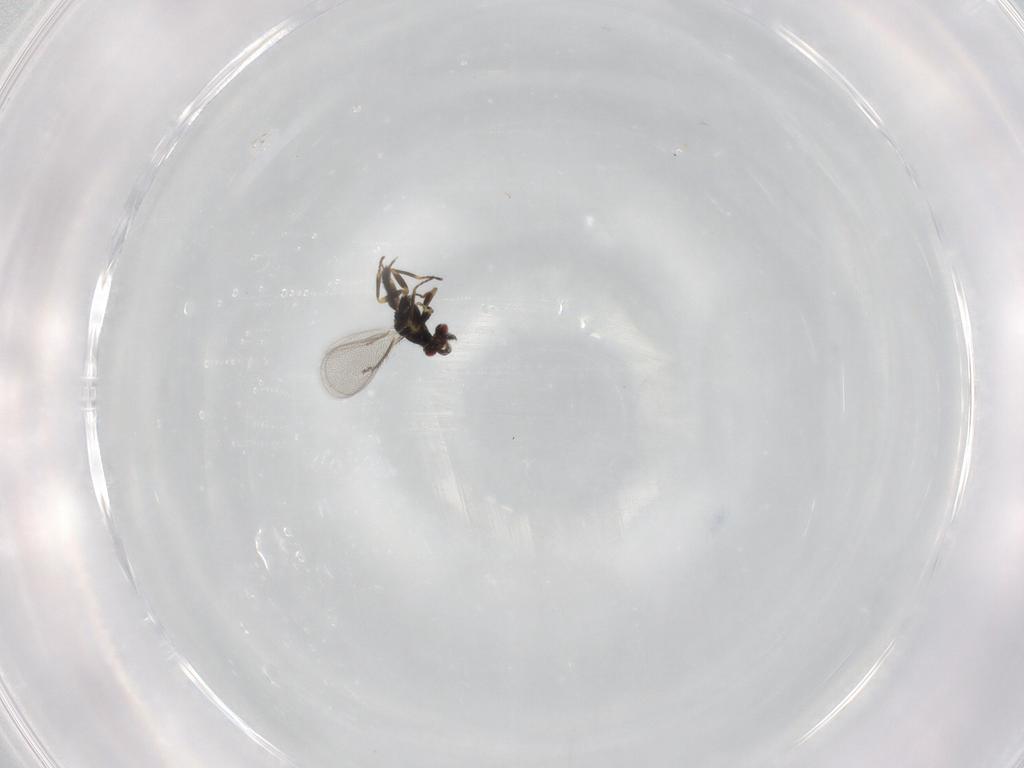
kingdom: Animalia
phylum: Arthropoda
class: Insecta
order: Hymenoptera
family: Eulophidae
